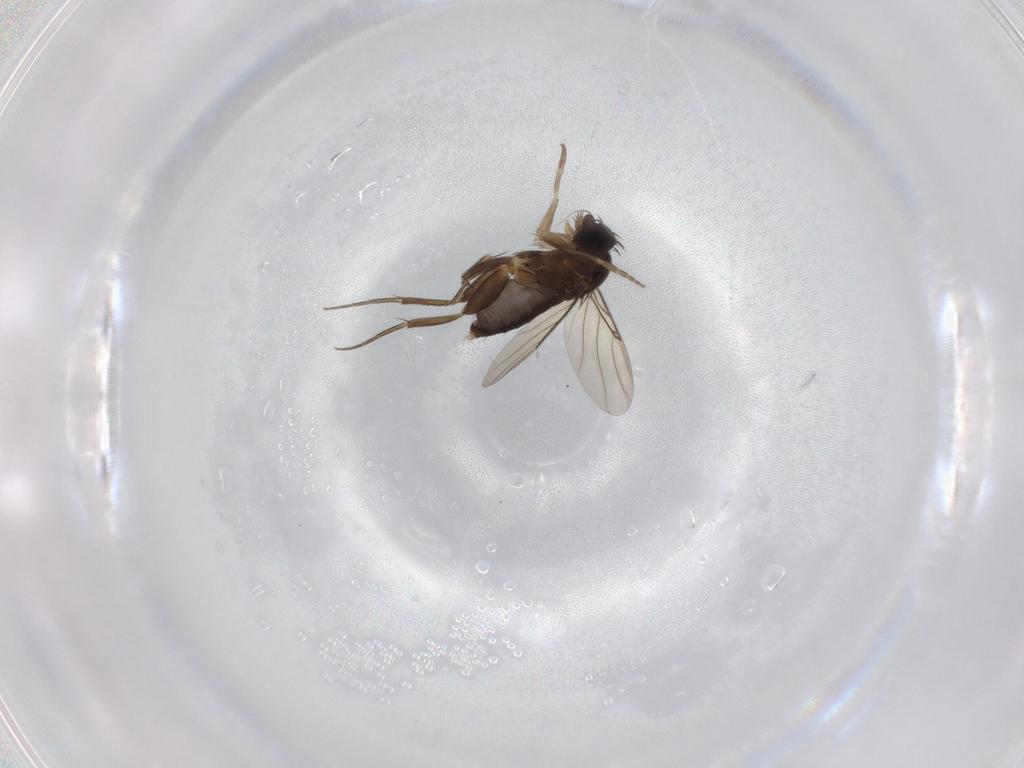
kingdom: Animalia
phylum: Arthropoda
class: Insecta
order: Diptera
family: Phoridae
